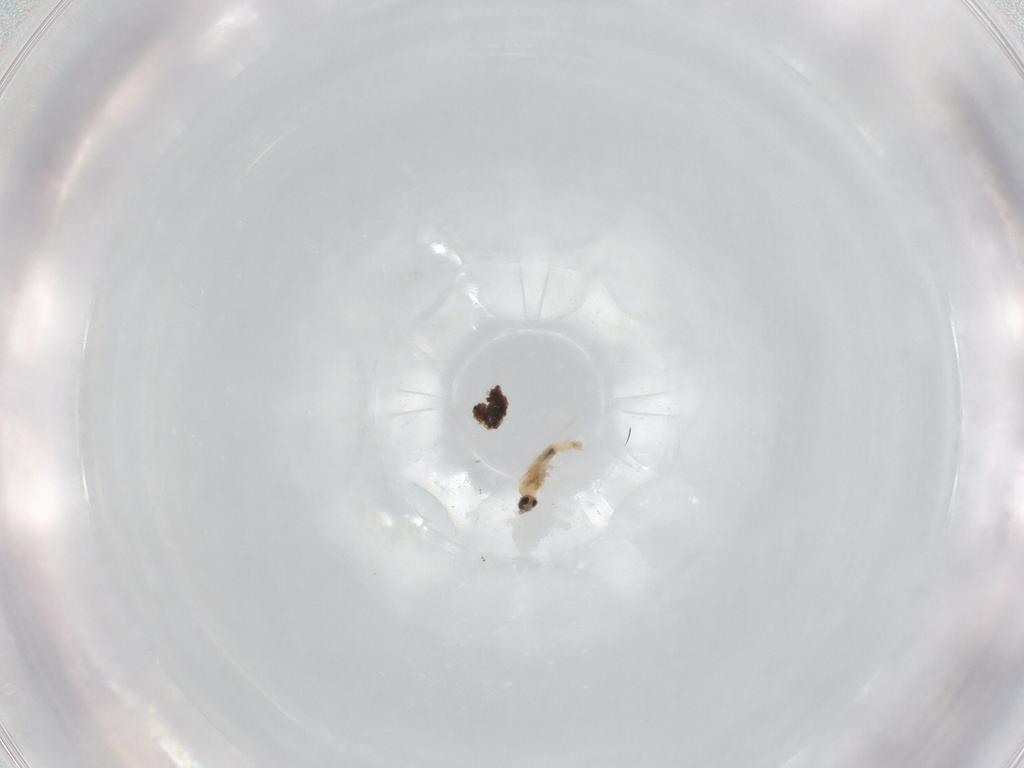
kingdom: Animalia
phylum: Arthropoda
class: Insecta
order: Diptera
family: Cecidomyiidae
